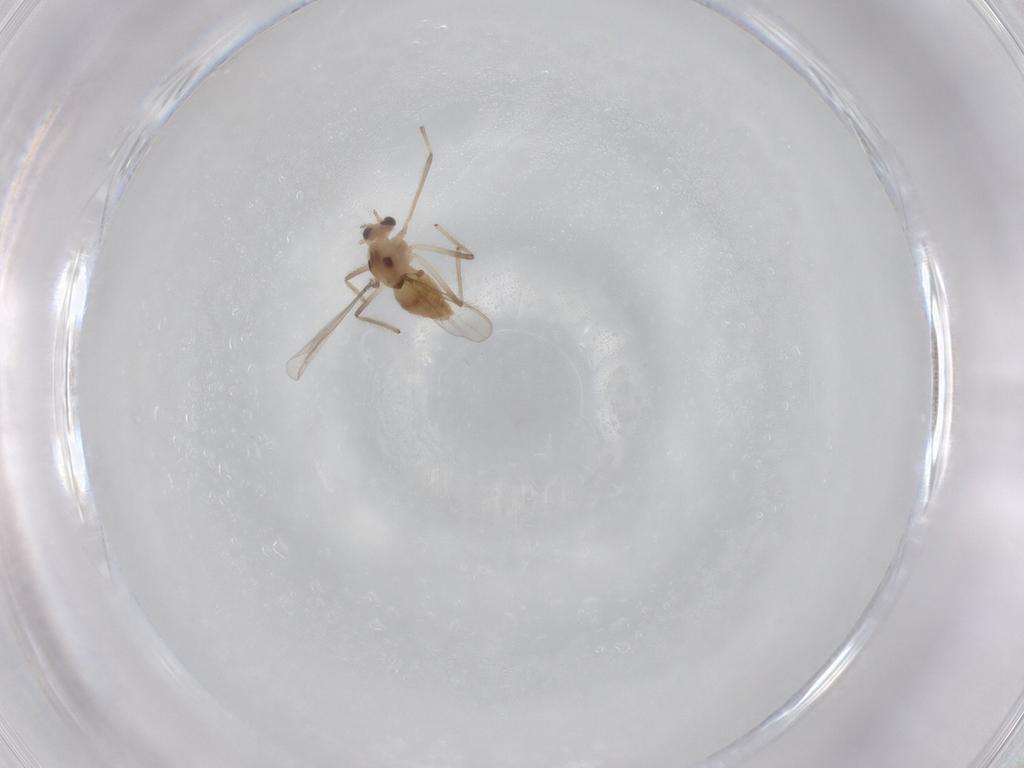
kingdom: Animalia
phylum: Arthropoda
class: Insecta
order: Diptera
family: Chironomidae
